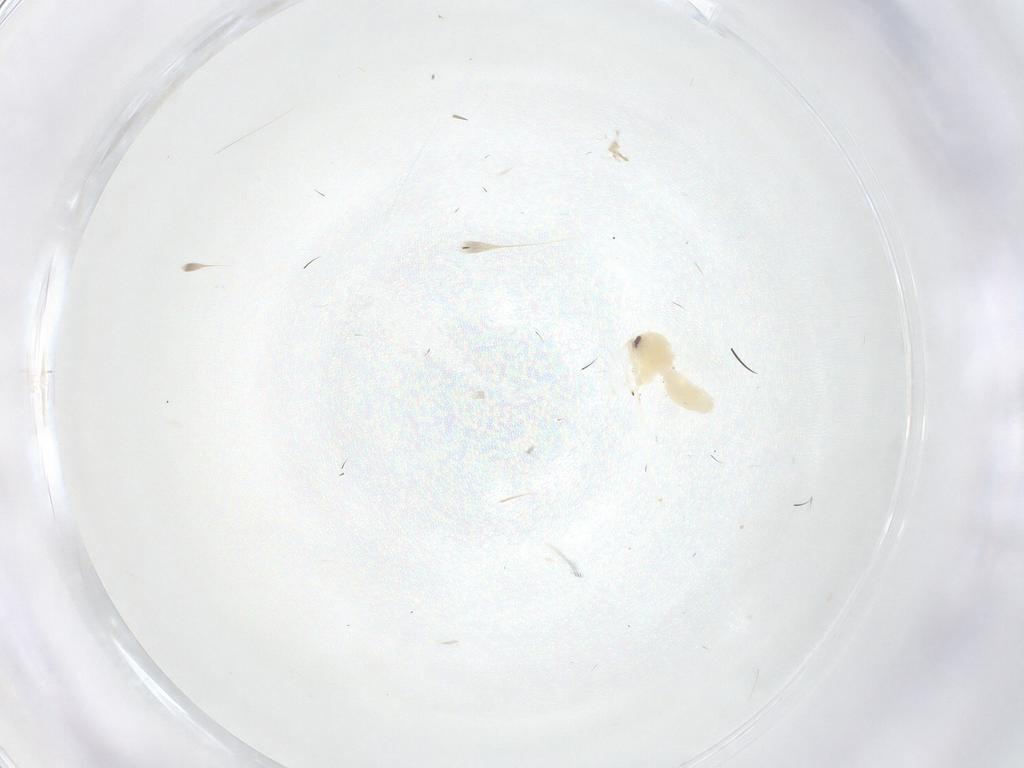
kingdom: Animalia
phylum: Arthropoda
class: Insecta
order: Hemiptera
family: Aleyrodidae
